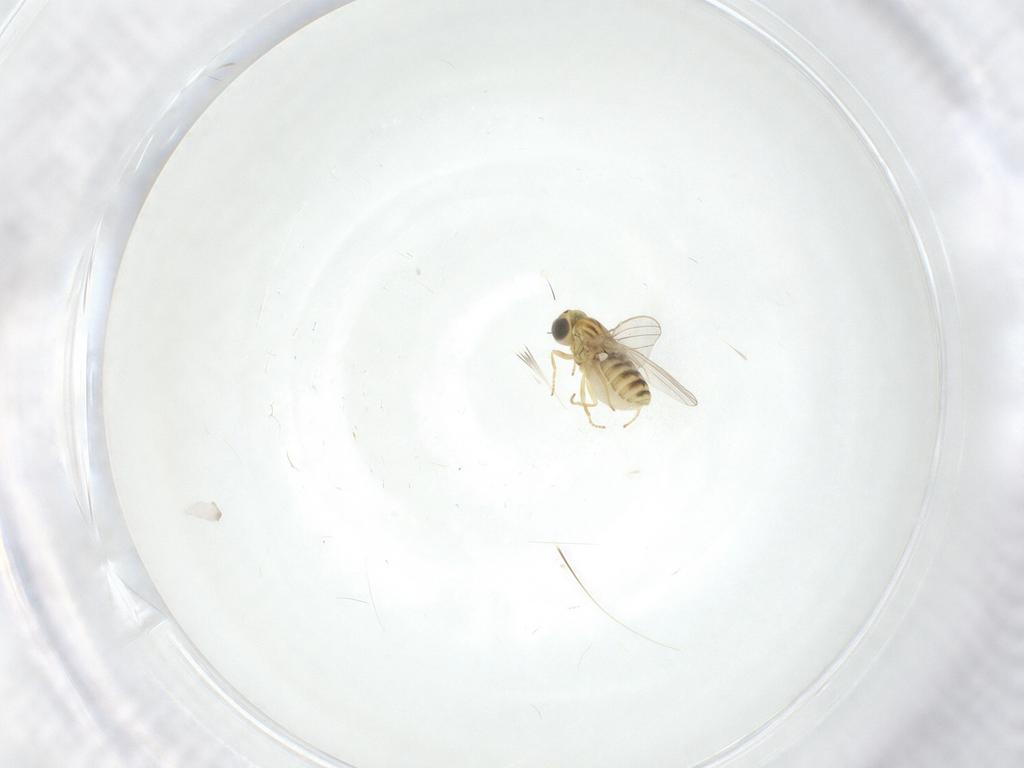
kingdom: Animalia
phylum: Arthropoda
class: Insecta
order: Diptera
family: Chyromyidae
